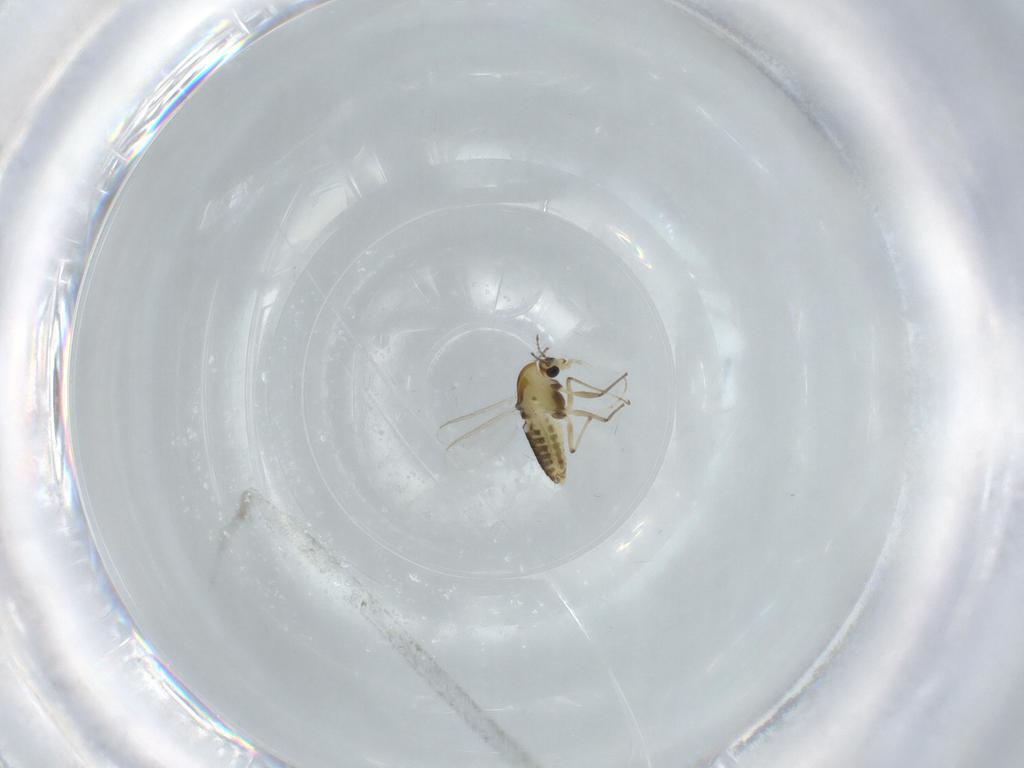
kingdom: Animalia
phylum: Arthropoda
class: Insecta
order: Diptera
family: Chironomidae
